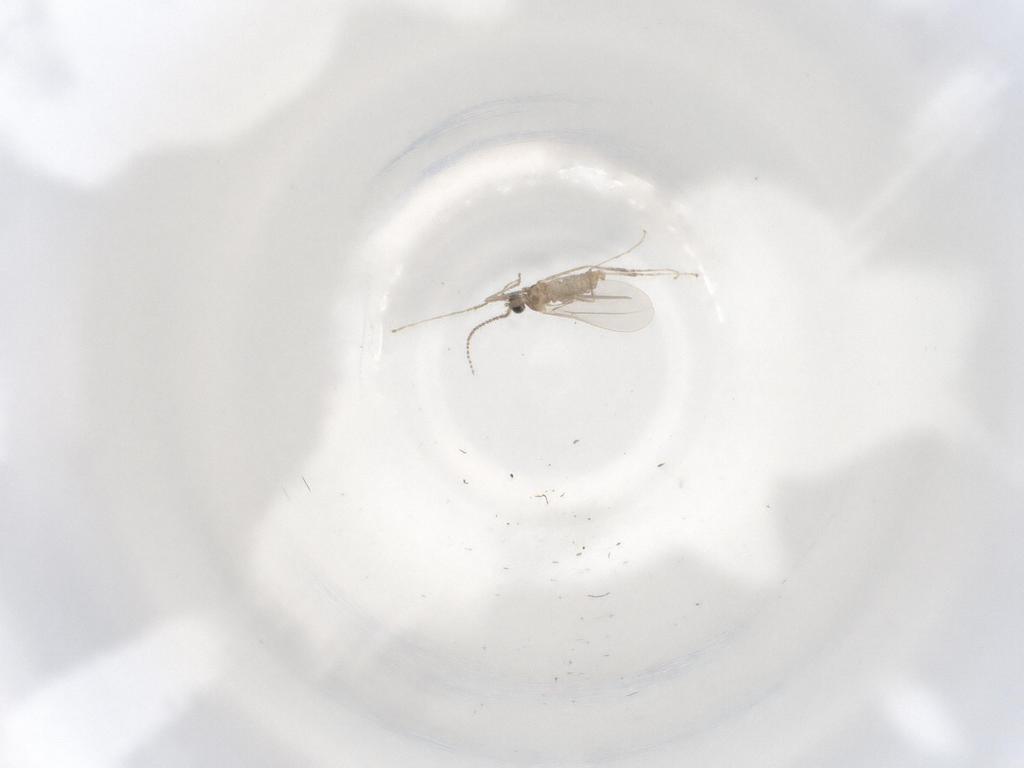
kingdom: Animalia
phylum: Arthropoda
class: Insecta
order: Diptera
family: Cecidomyiidae
